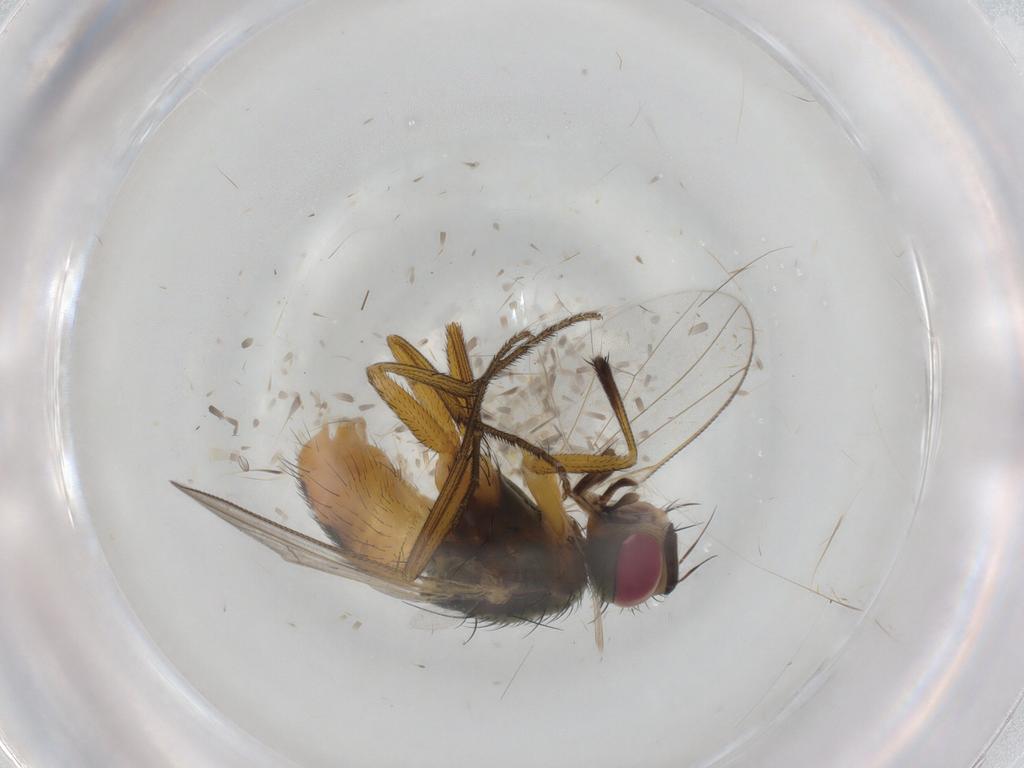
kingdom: Animalia
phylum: Arthropoda
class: Insecta
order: Diptera
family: Muscidae
